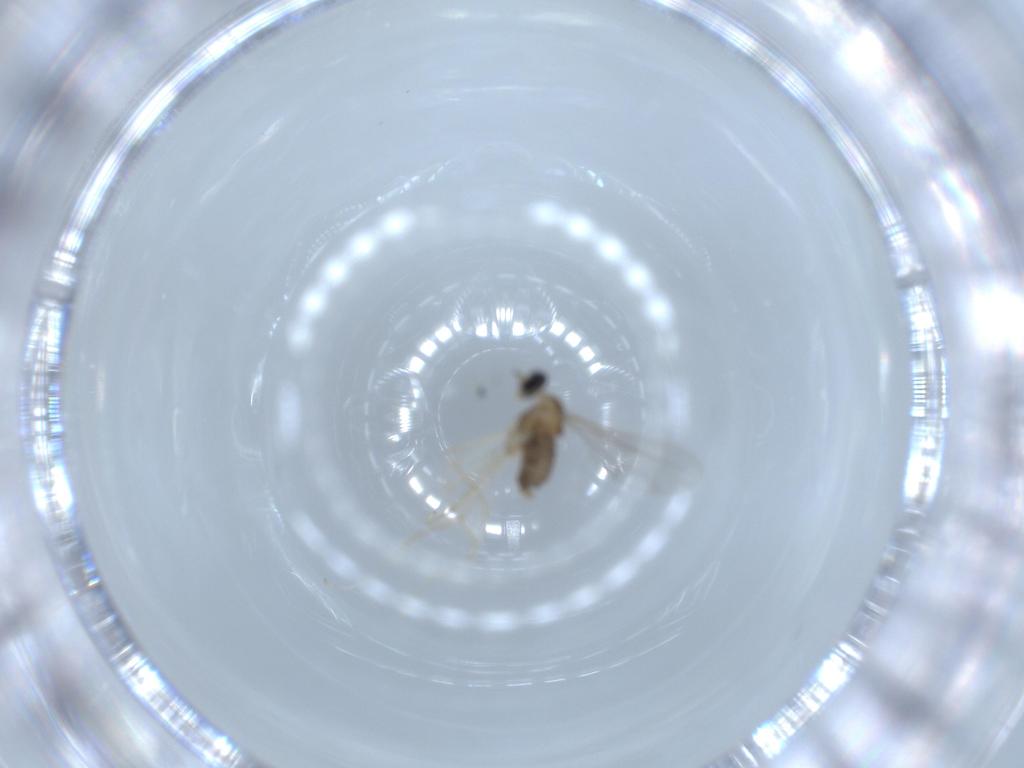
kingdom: Animalia
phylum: Arthropoda
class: Insecta
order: Diptera
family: Cecidomyiidae
